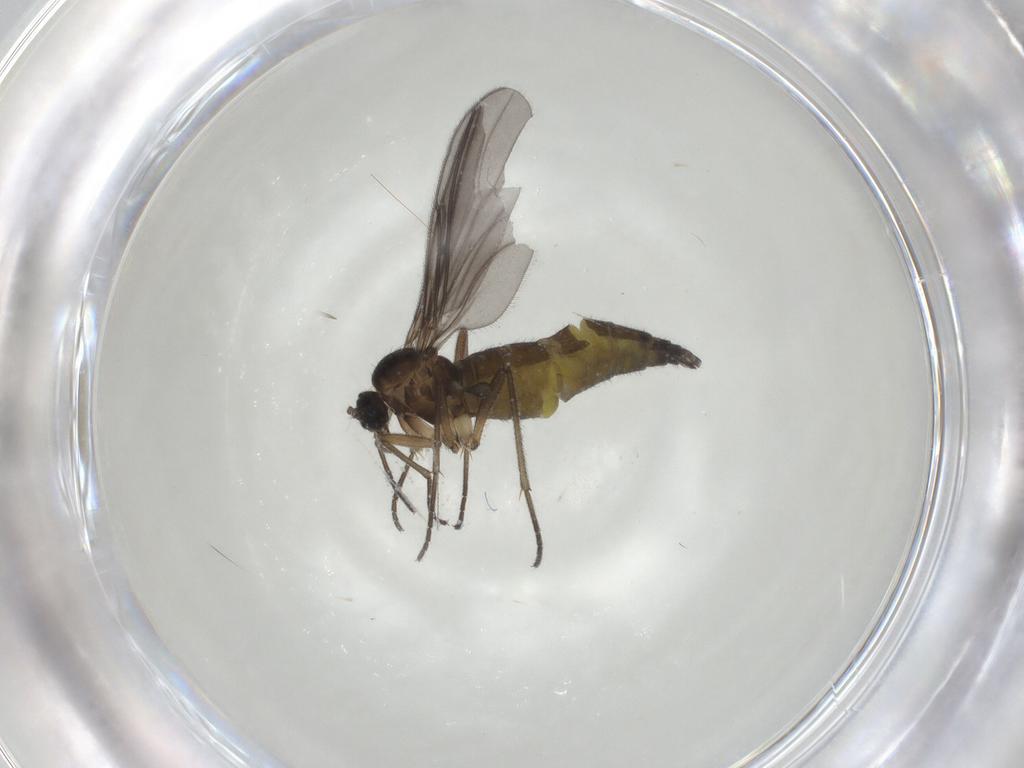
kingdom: Animalia
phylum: Arthropoda
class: Insecta
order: Diptera
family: Sciaridae
